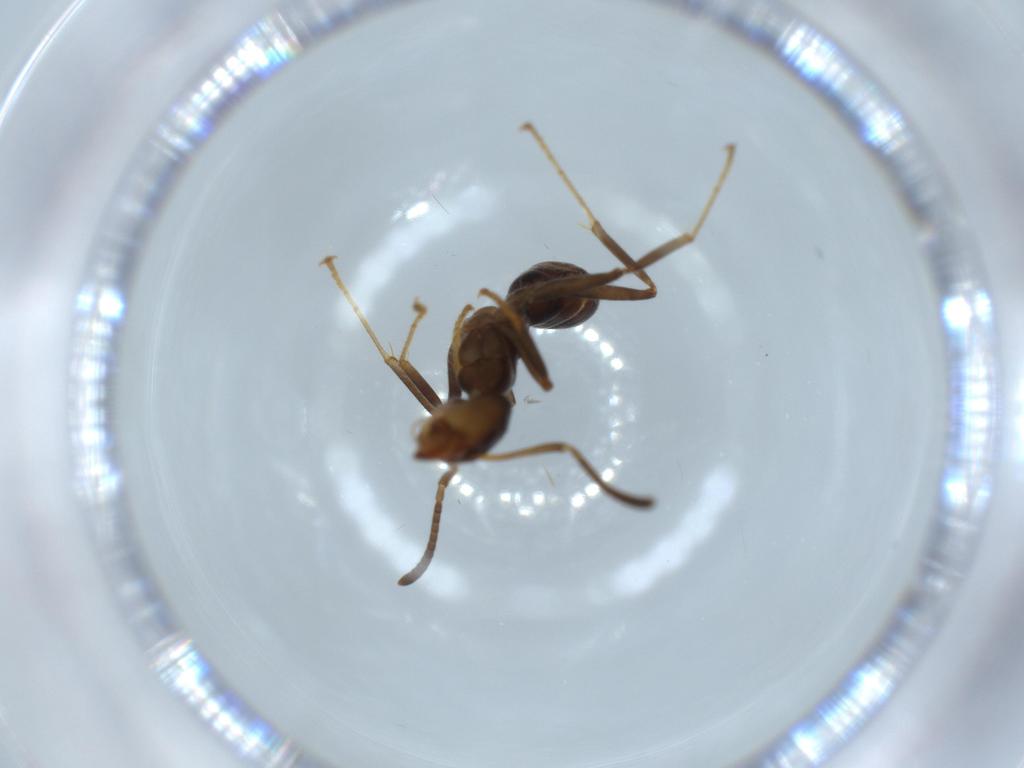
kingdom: Animalia
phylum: Arthropoda
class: Insecta
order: Hymenoptera
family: Formicidae
